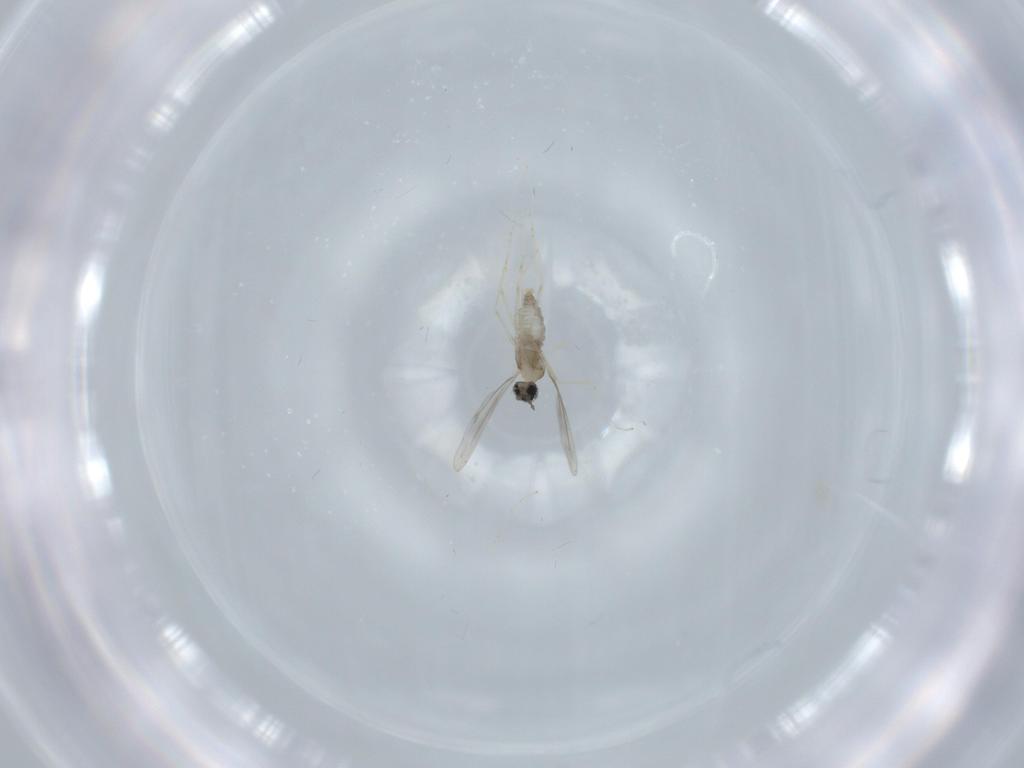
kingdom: Animalia
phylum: Arthropoda
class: Insecta
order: Diptera
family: Cecidomyiidae
